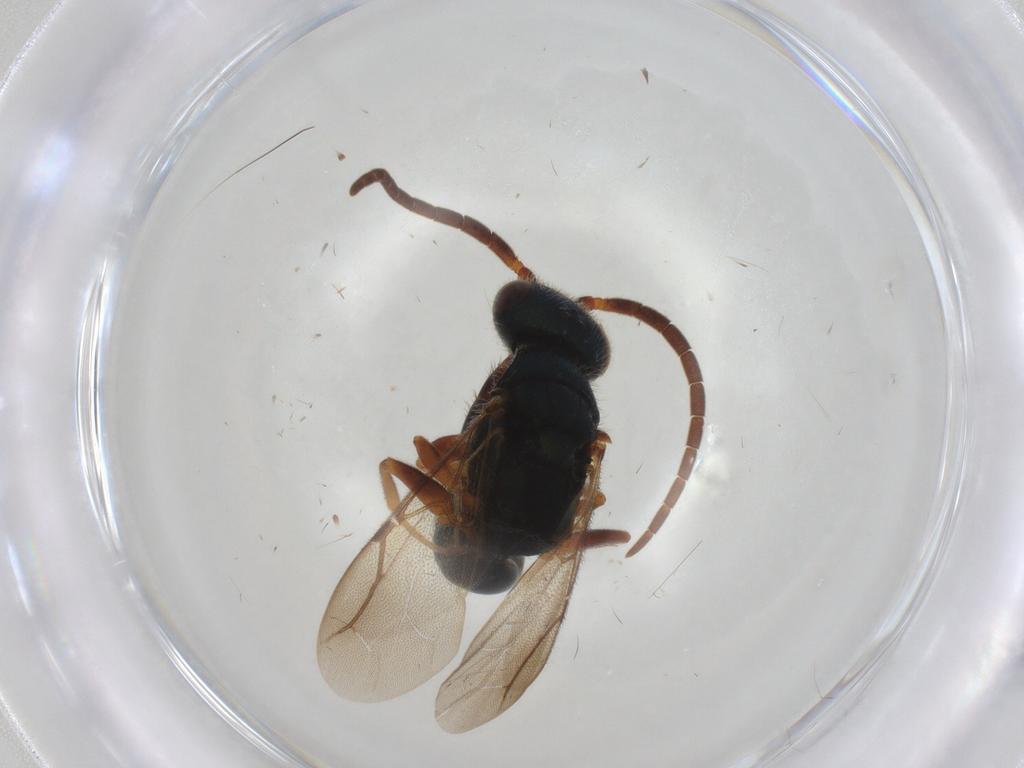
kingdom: Animalia
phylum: Arthropoda
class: Insecta
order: Hymenoptera
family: Bethylidae
